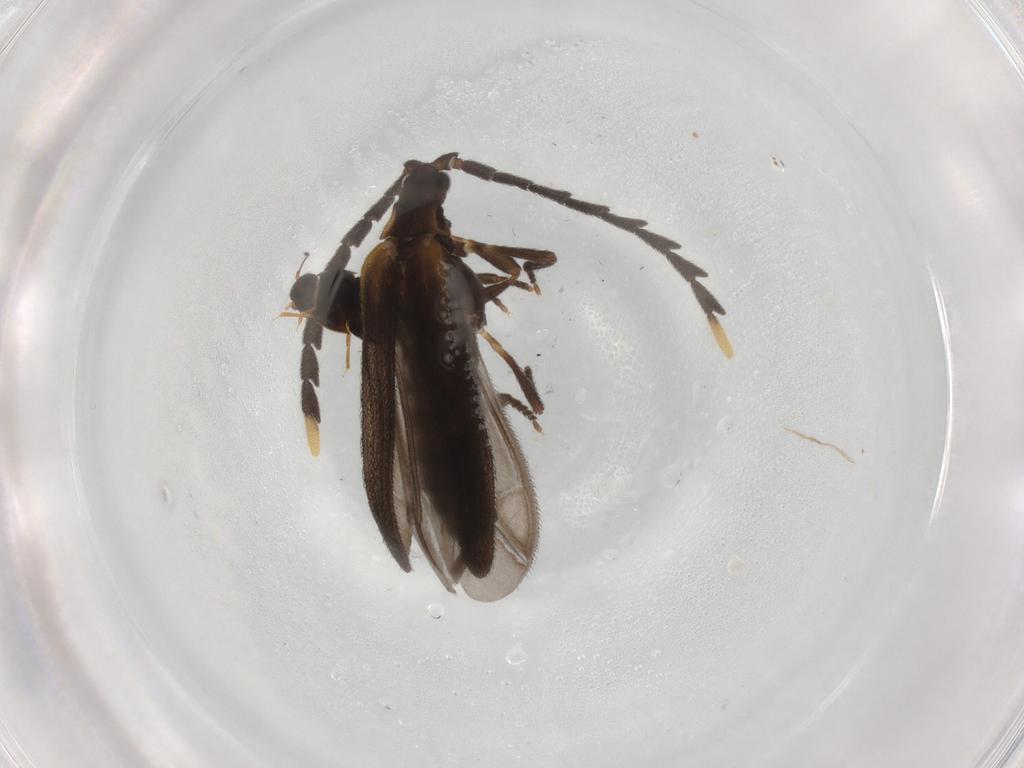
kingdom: Animalia
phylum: Arthropoda
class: Insecta
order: Coleoptera
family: Lycidae
